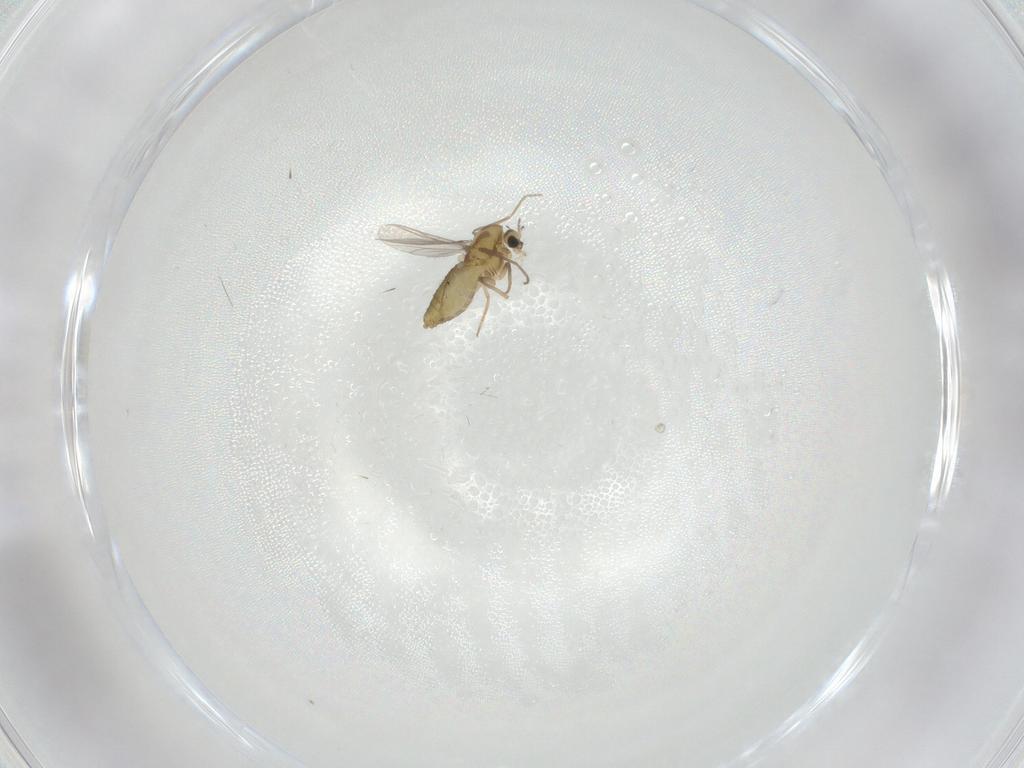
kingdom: Animalia
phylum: Arthropoda
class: Insecta
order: Diptera
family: Chironomidae
